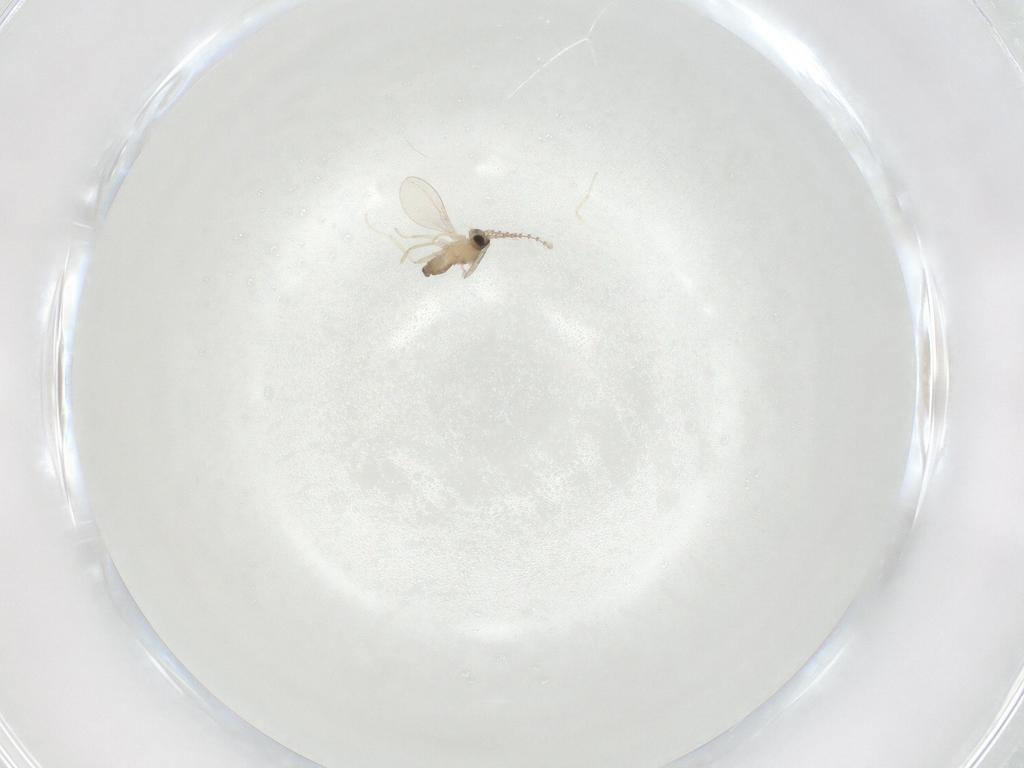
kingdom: Animalia
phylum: Arthropoda
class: Insecta
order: Diptera
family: Cecidomyiidae
